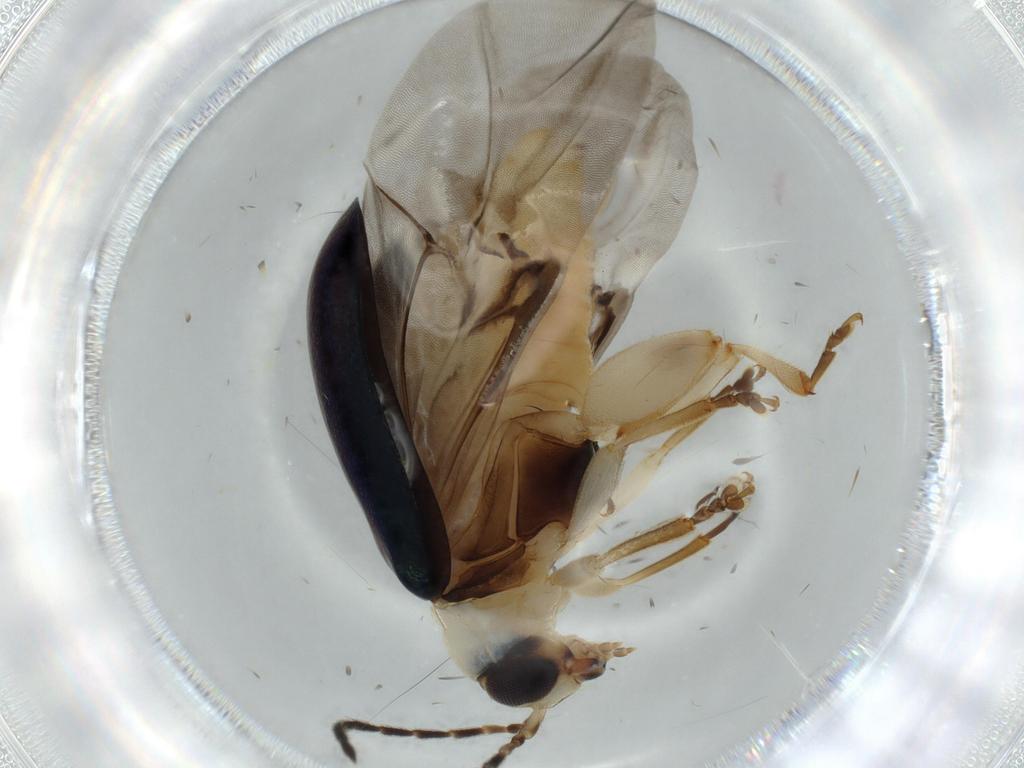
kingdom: Animalia
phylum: Arthropoda
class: Insecta
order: Coleoptera
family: Chrysomelidae
